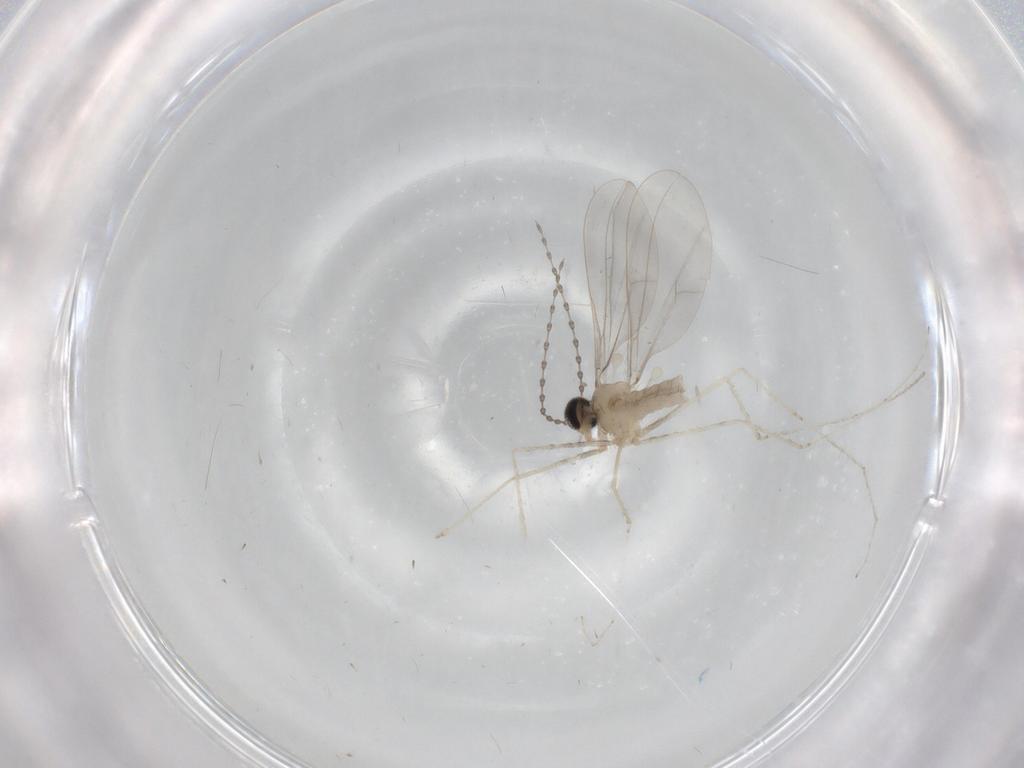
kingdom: Animalia
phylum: Arthropoda
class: Insecta
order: Diptera
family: Cecidomyiidae
